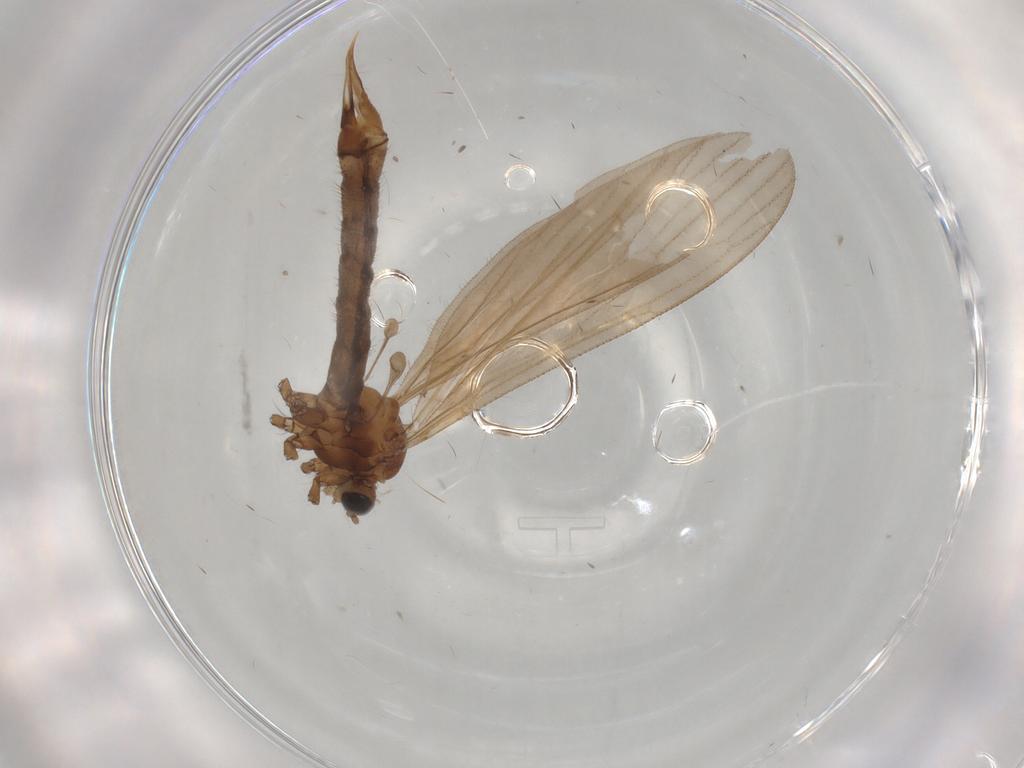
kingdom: Animalia
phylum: Arthropoda
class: Insecta
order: Diptera
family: Limoniidae
